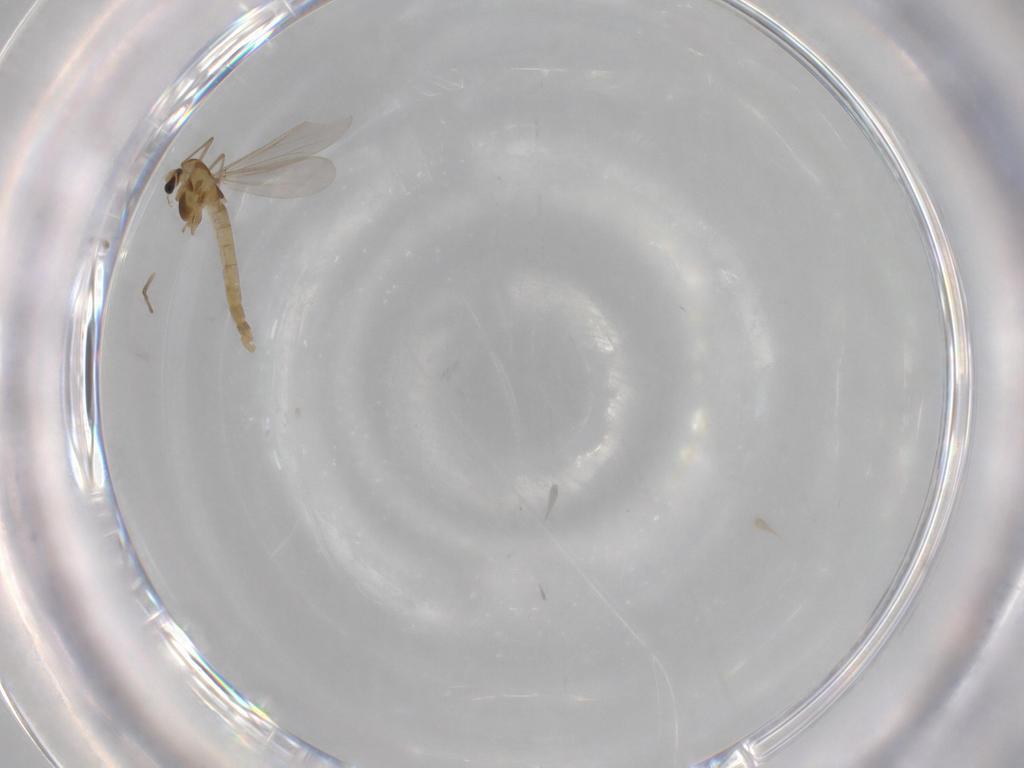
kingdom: Animalia
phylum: Arthropoda
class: Insecta
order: Diptera
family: Chironomidae
